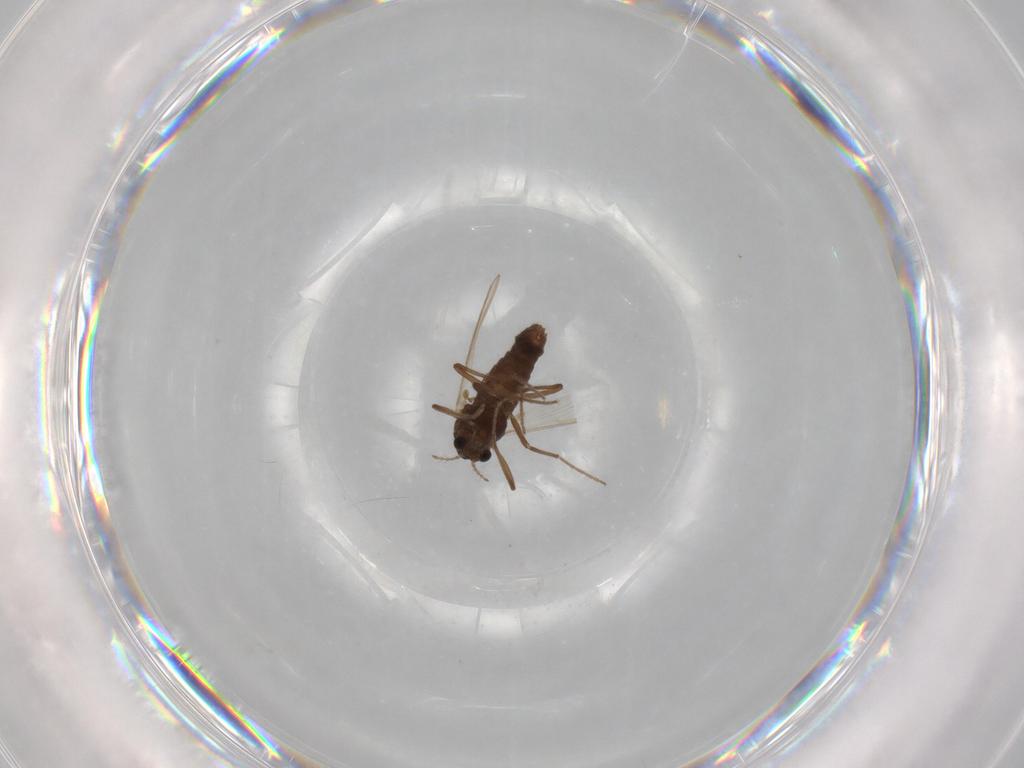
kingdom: Animalia
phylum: Arthropoda
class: Insecta
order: Diptera
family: Chironomidae
